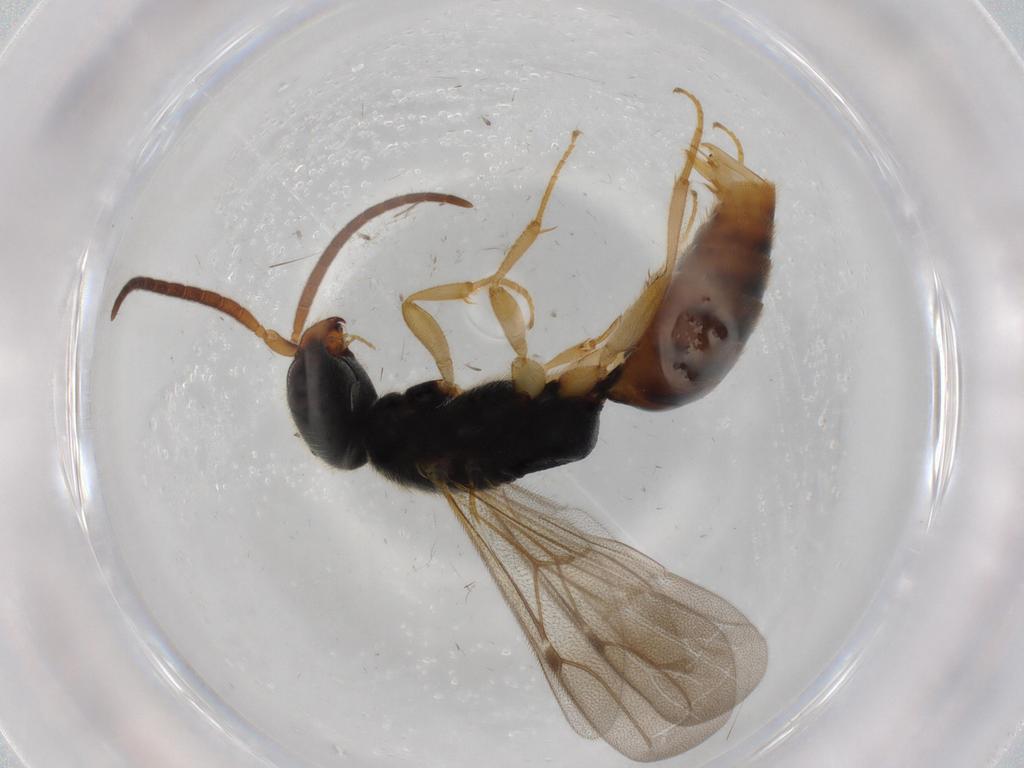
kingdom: Animalia
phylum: Arthropoda
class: Insecta
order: Hymenoptera
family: Bethylidae
